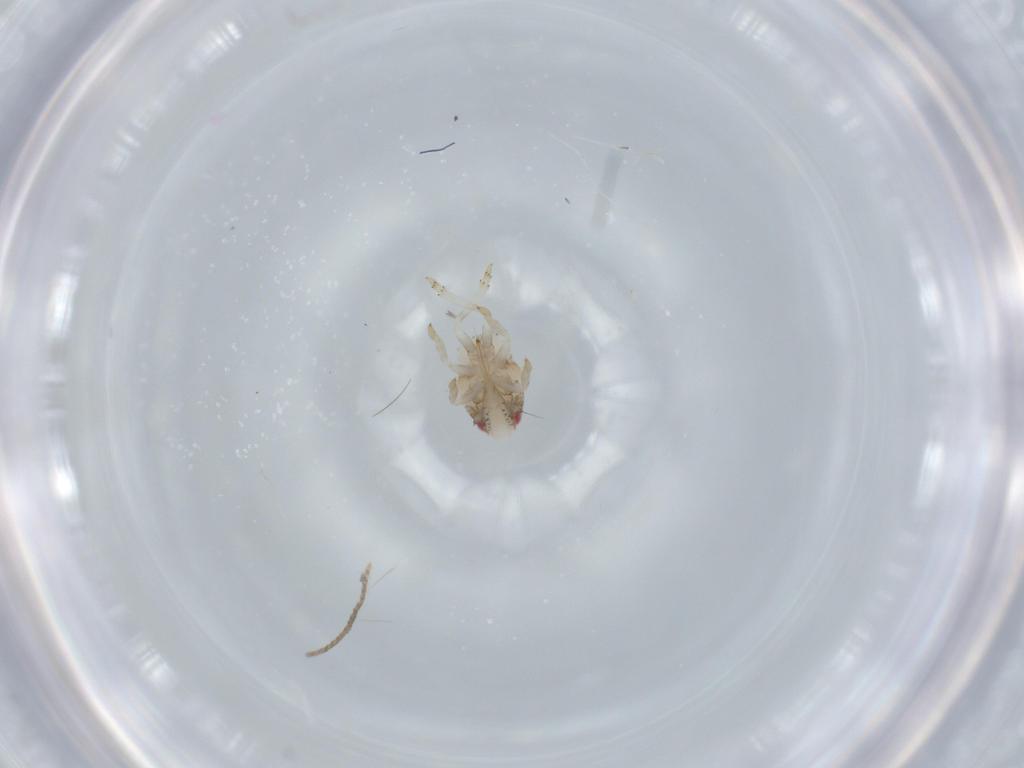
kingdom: Animalia
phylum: Arthropoda
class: Insecta
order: Hemiptera
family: Acanaloniidae
